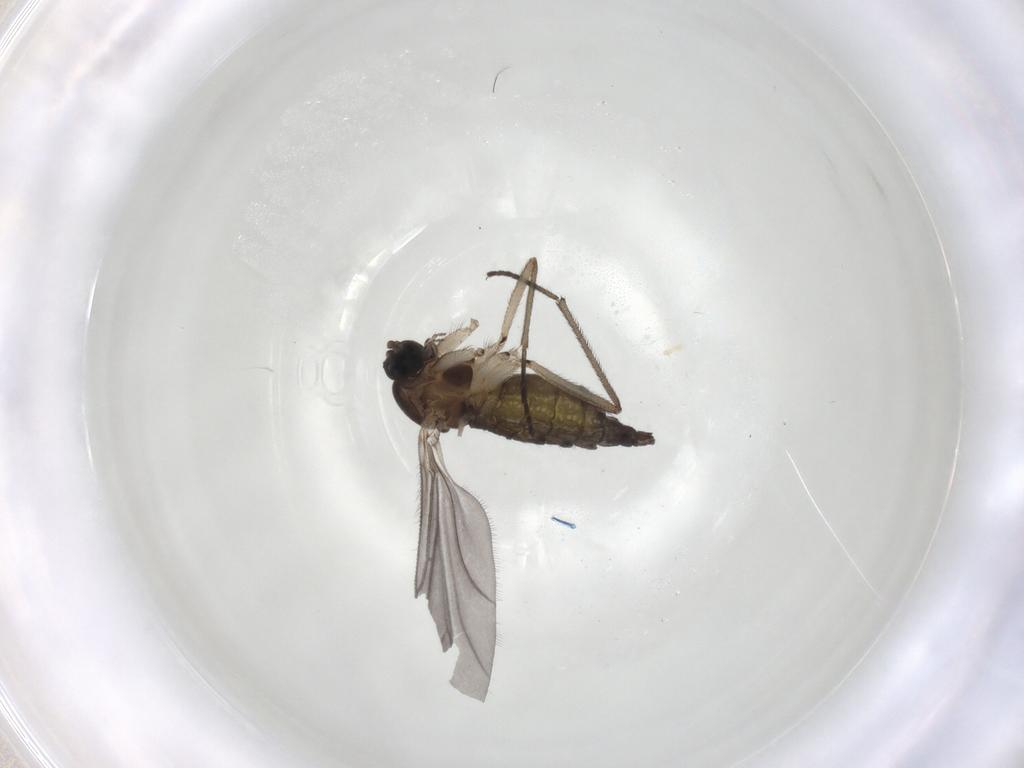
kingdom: Animalia
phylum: Arthropoda
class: Insecta
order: Diptera
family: Sciaridae
